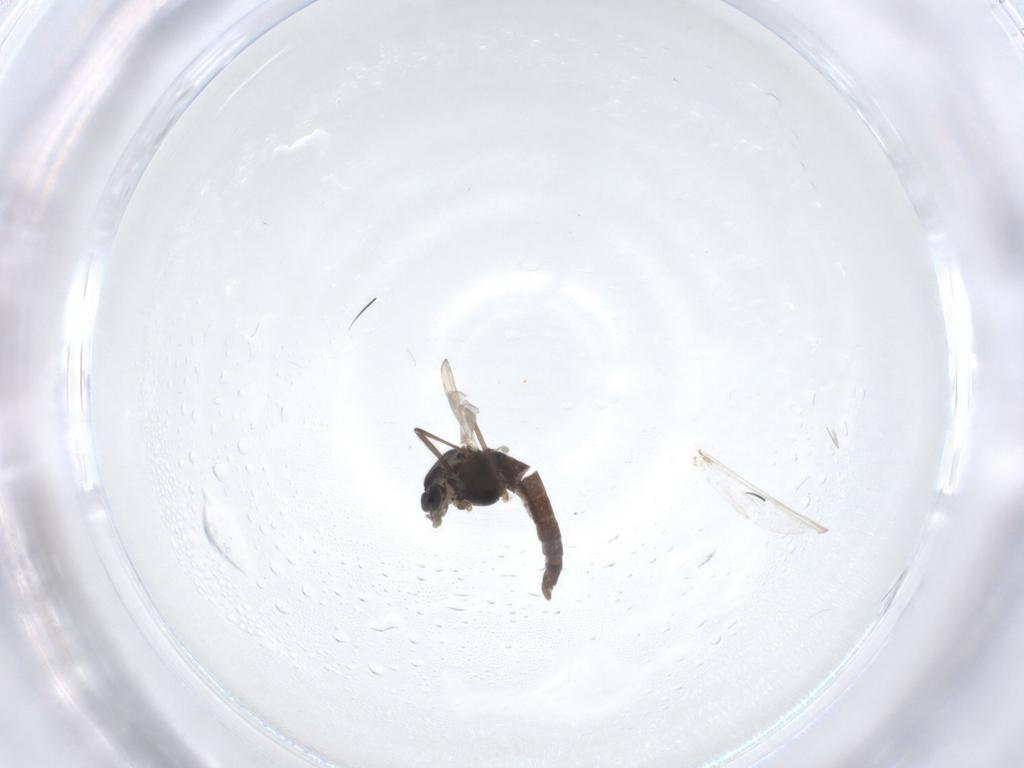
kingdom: Animalia
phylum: Arthropoda
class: Insecta
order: Diptera
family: Chironomidae
